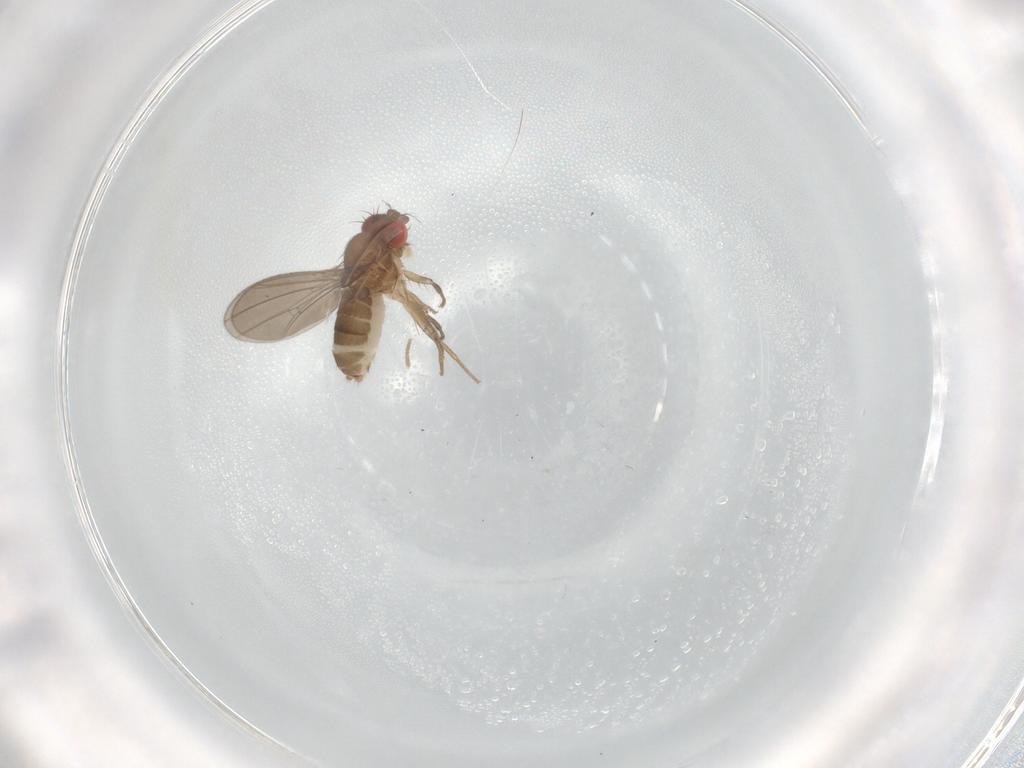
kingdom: Animalia
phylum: Arthropoda
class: Insecta
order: Diptera
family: Drosophilidae
